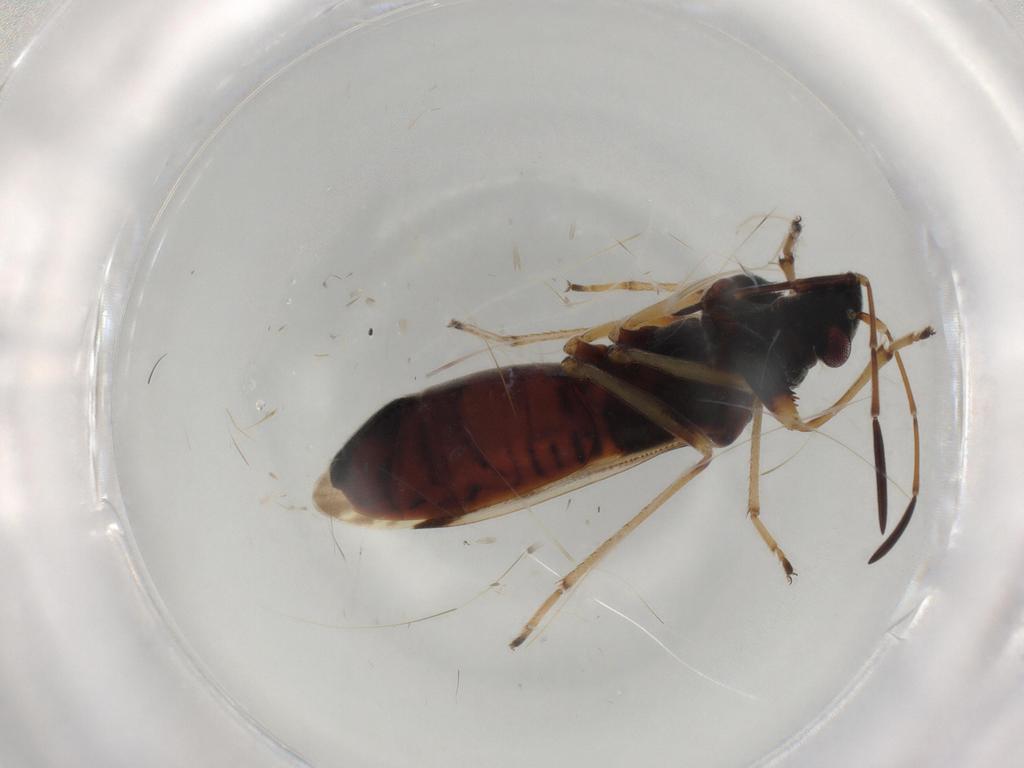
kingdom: Animalia
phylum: Arthropoda
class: Insecta
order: Hemiptera
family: Rhyparochromidae
